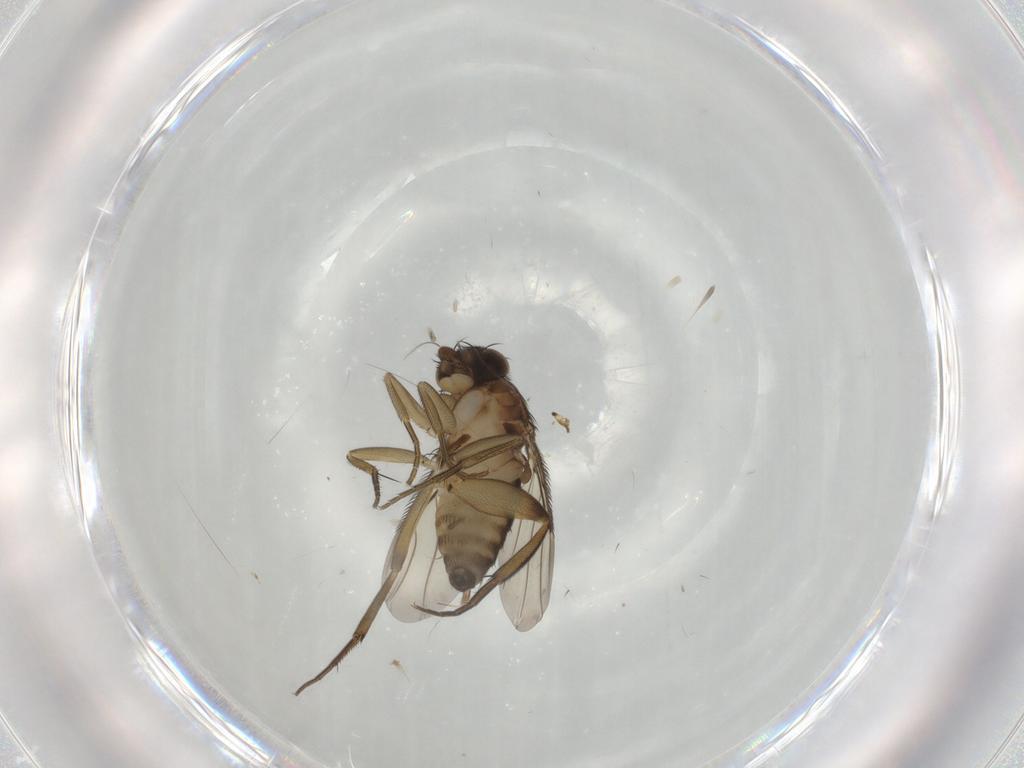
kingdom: Animalia
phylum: Arthropoda
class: Insecta
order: Diptera
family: Phoridae
